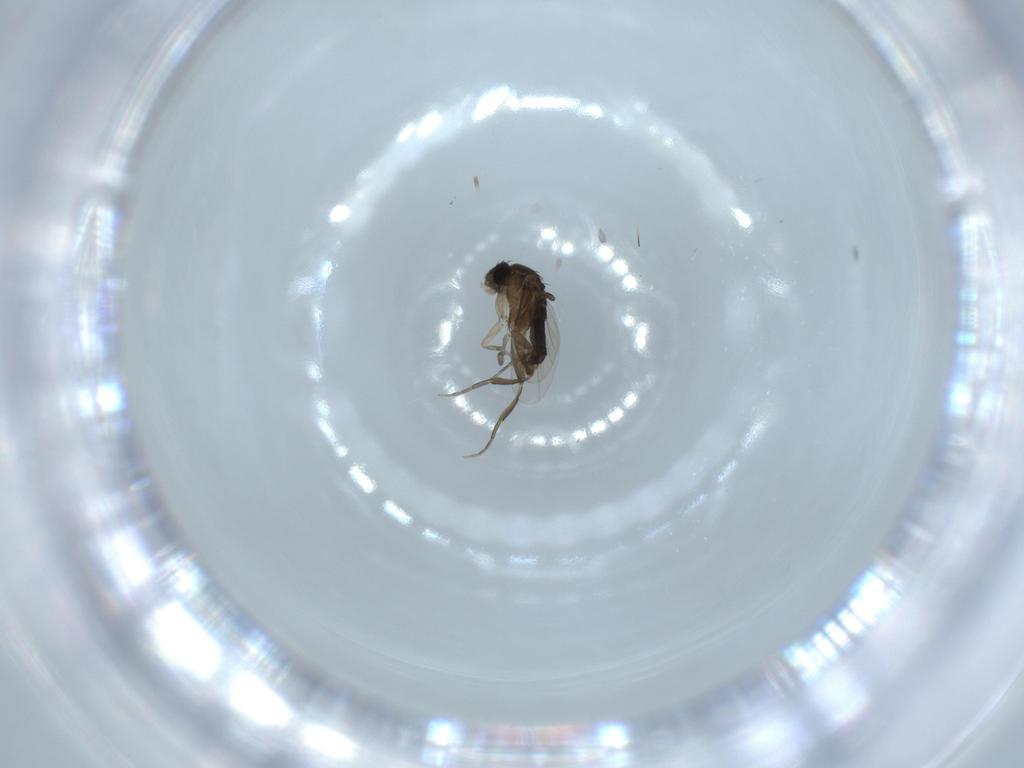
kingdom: Animalia
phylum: Arthropoda
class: Insecta
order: Diptera
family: Phoridae
